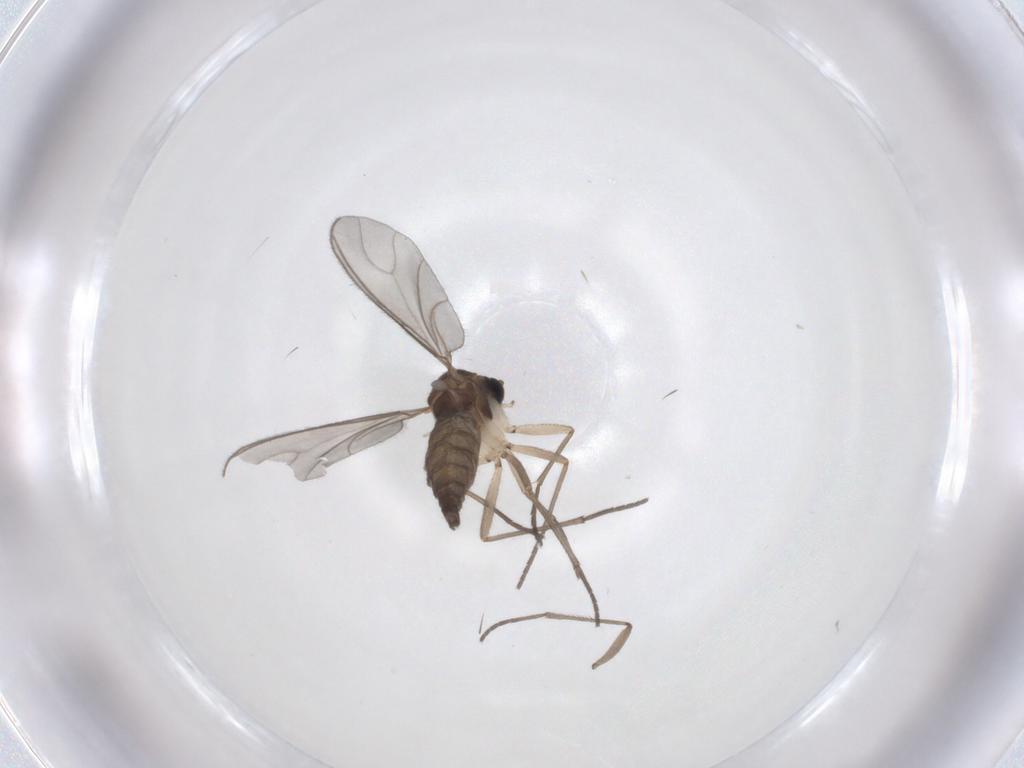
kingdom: Animalia
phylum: Arthropoda
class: Insecta
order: Diptera
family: Sciaridae
